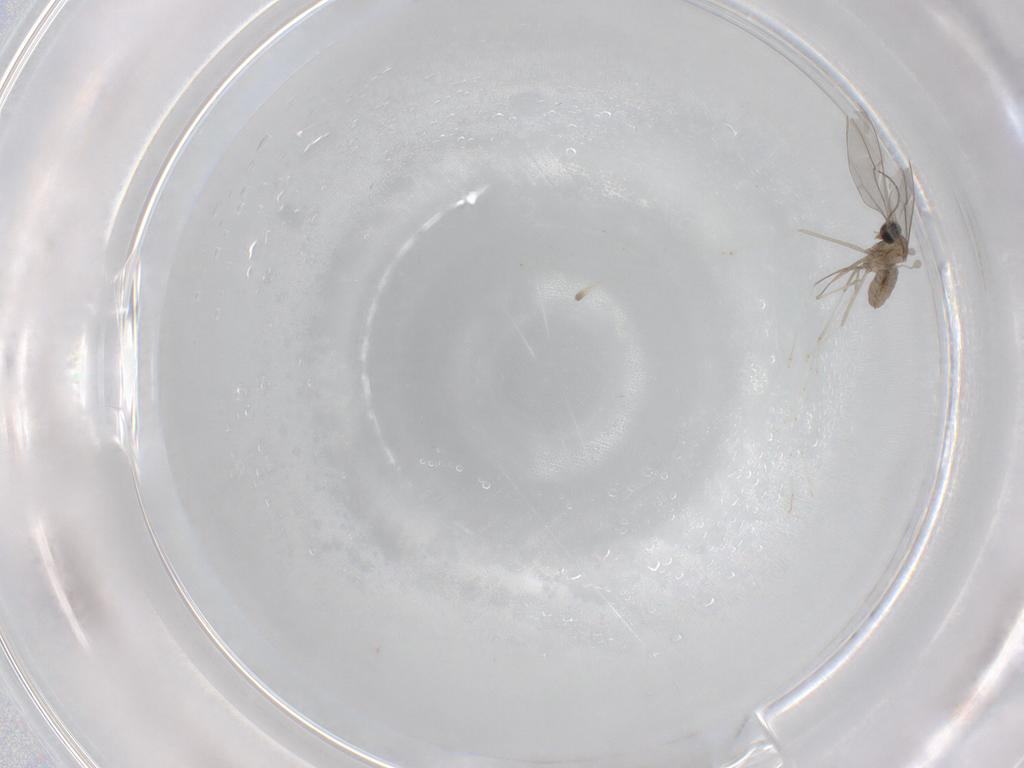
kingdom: Animalia
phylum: Arthropoda
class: Insecta
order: Diptera
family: Cecidomyiidae
